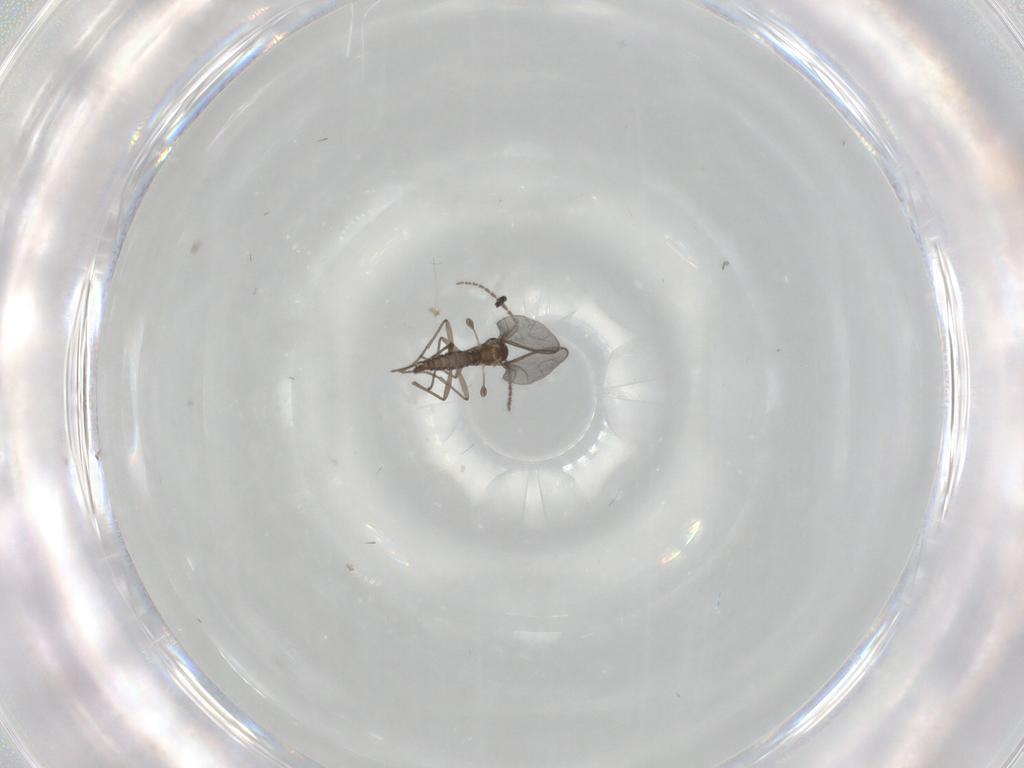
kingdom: Animalia
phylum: Arthropoda
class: Insecta
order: Diptera
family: Sciaridae
